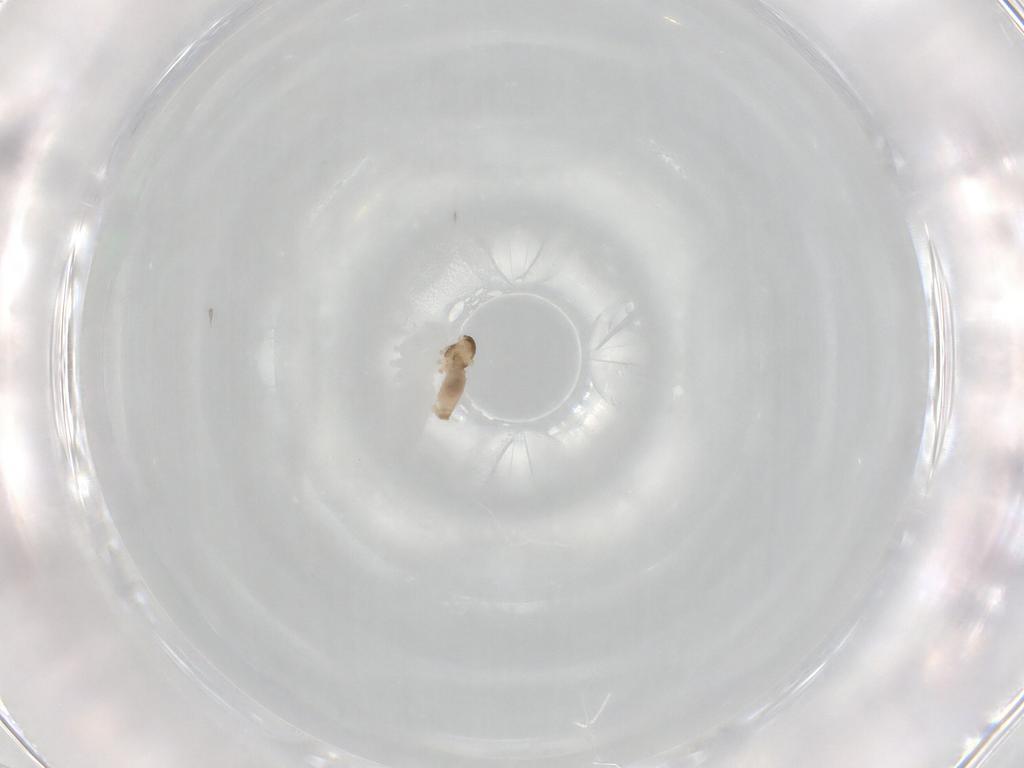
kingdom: Animalia
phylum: Arthropoda
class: Insecta
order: Diptera
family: Tachinidae
